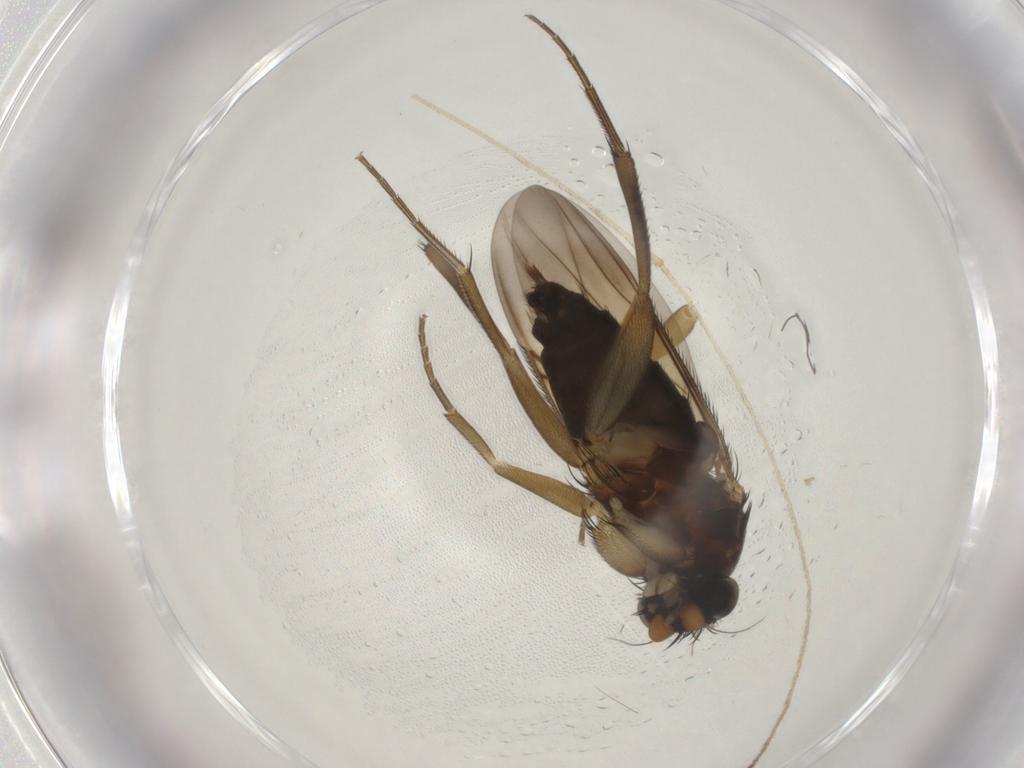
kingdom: Animalia
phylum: Arthropoda
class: Insecta
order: Diptera
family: Phoridae
